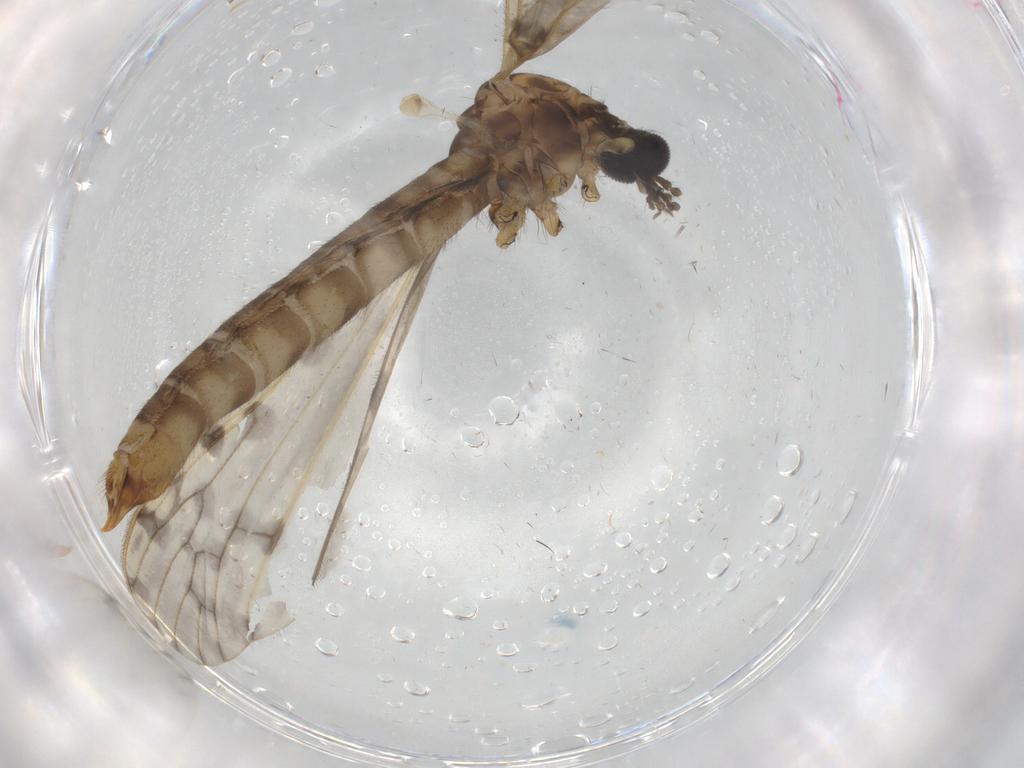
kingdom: Animalia
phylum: Arthropoda
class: Insecta
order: Diptera
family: Limoniidae
